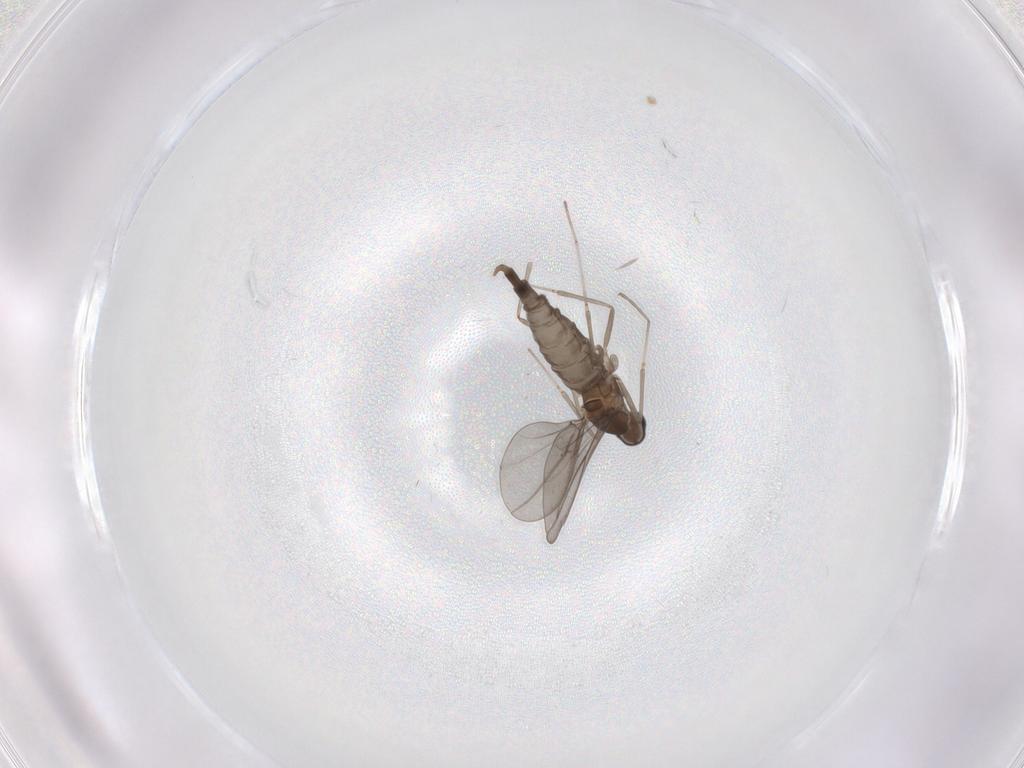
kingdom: Animalia
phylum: Arthropoda
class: Insecta
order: Diptera
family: Cecidomyiidae
